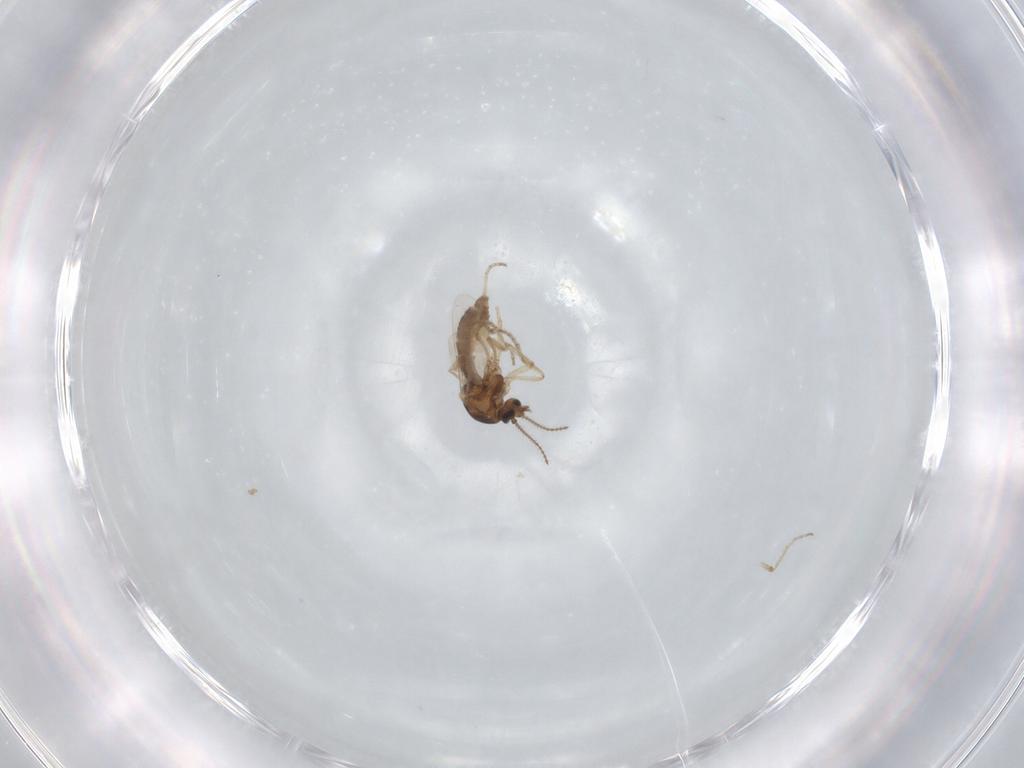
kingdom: Animalia
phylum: Arthropoda
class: Insecta
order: Diptera
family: Ceratopogonidae
